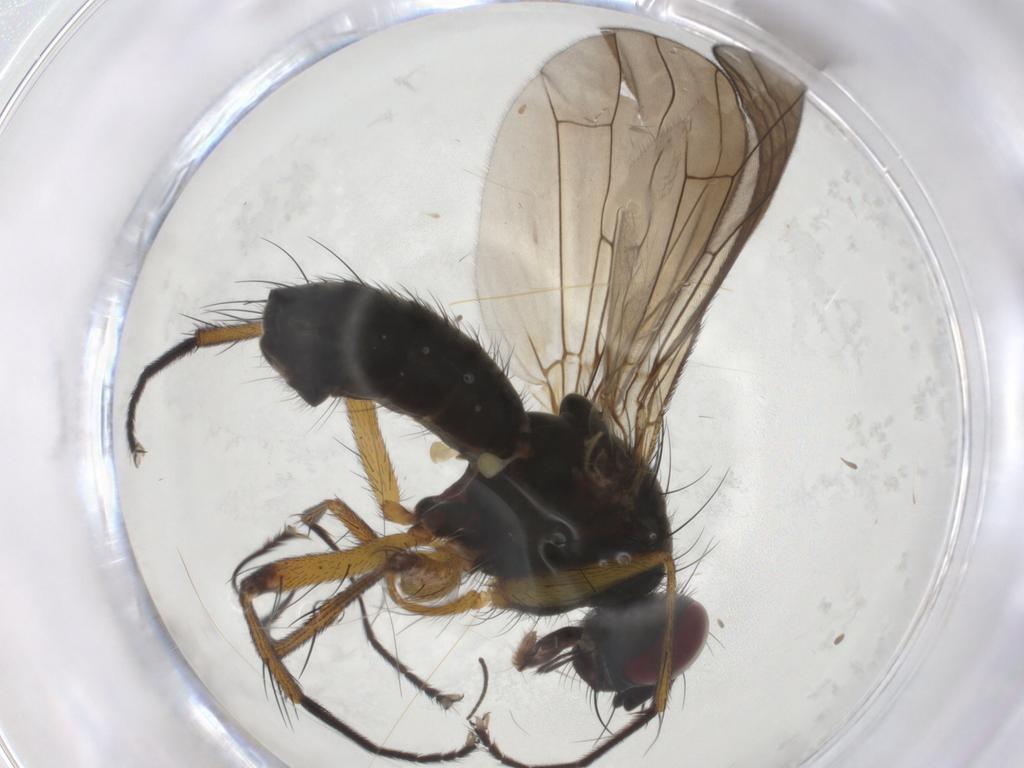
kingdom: Animalia
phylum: Arthropoda
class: Insecta
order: Diptera
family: Muscidae
